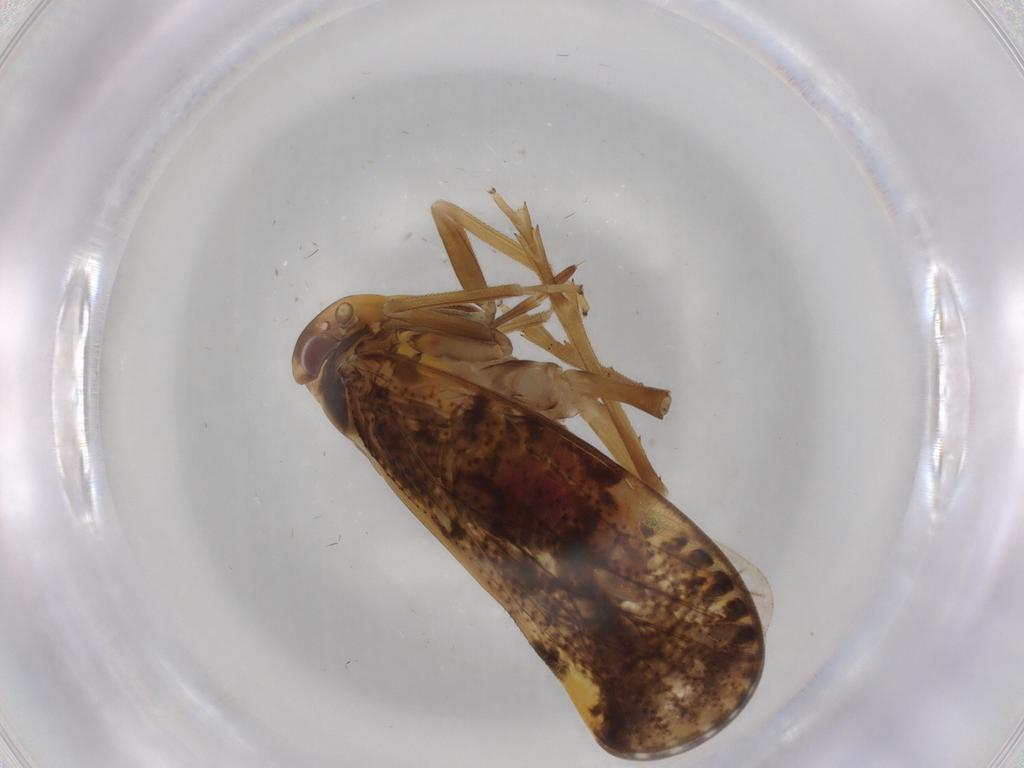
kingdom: Animalia
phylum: Arthropoda
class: Insecta
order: Hemiptera
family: Cixiidae
